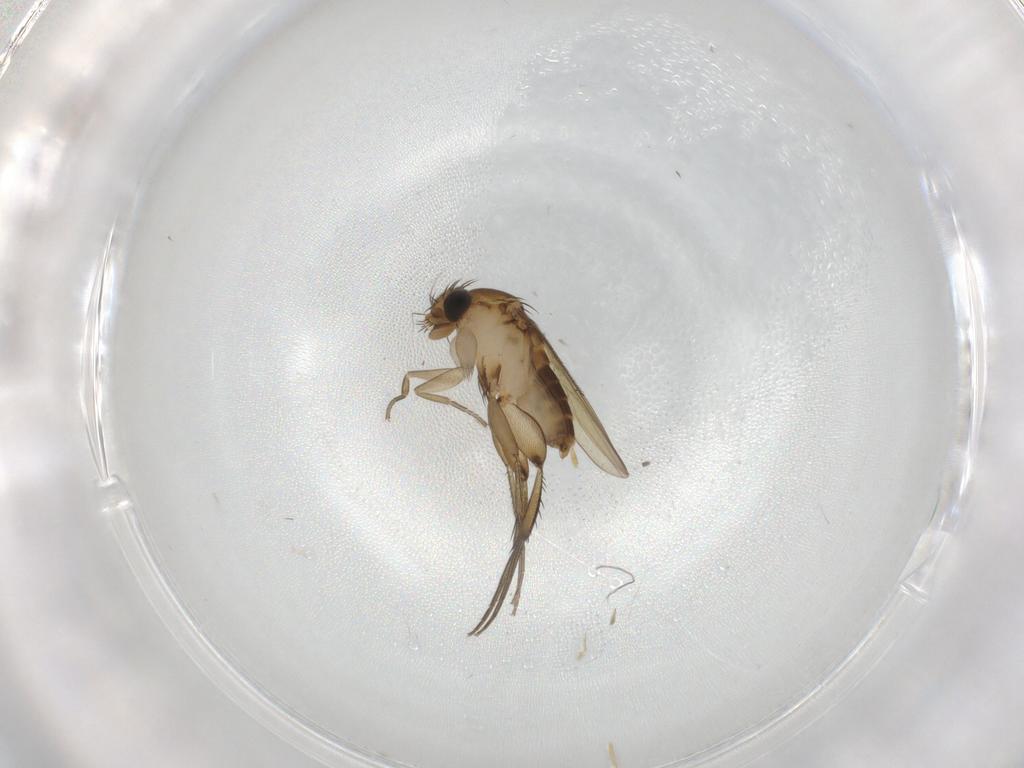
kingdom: Animalia
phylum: Arthropoda
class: Insecta
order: Diptera
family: Phoridae
